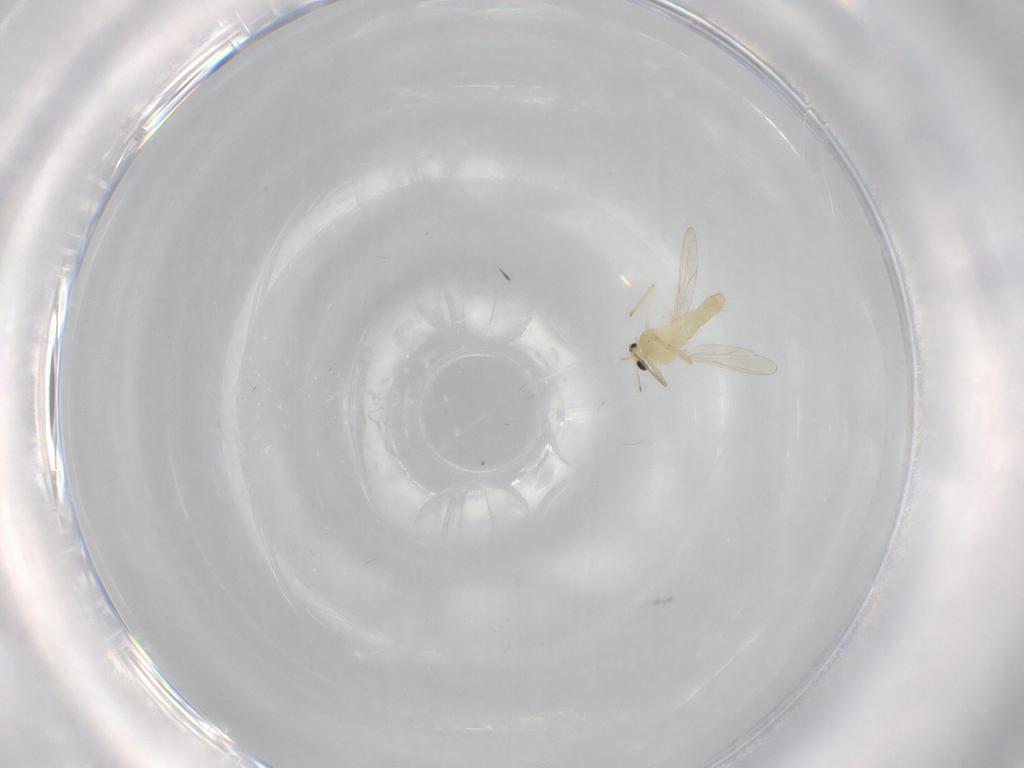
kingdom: Animalia
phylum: Arthropoda
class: Insecta
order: Diptera
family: Chironomidae
